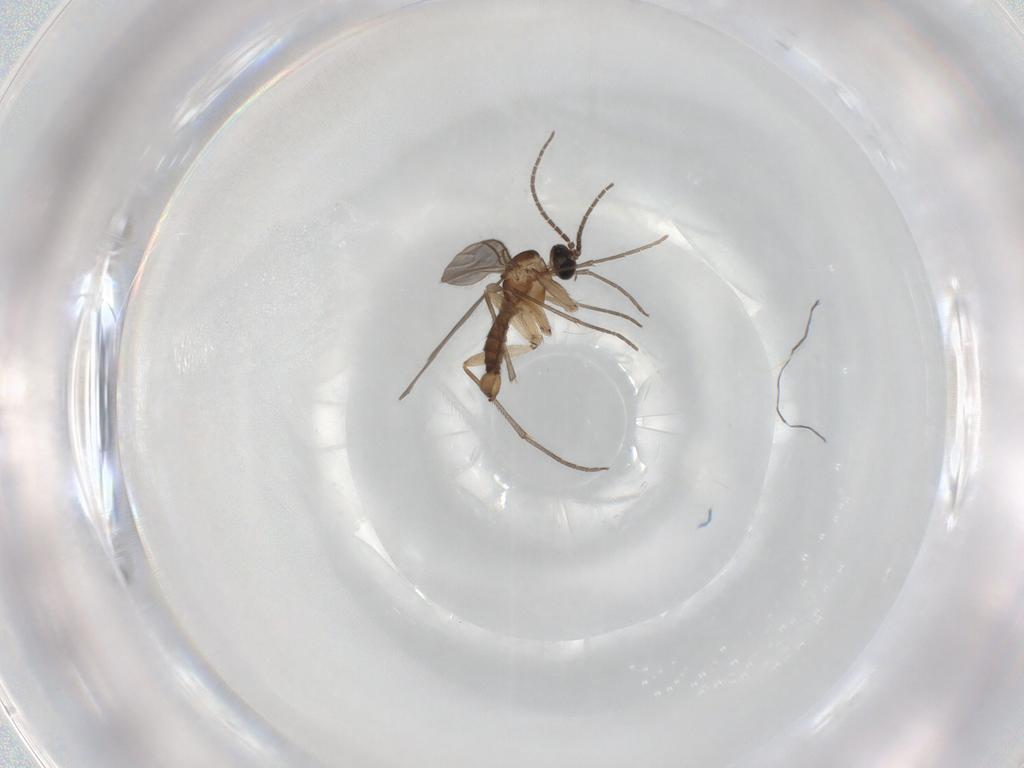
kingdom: Animalia
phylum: Arthropoda
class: Insecta
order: Diptera
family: Sciaridae
